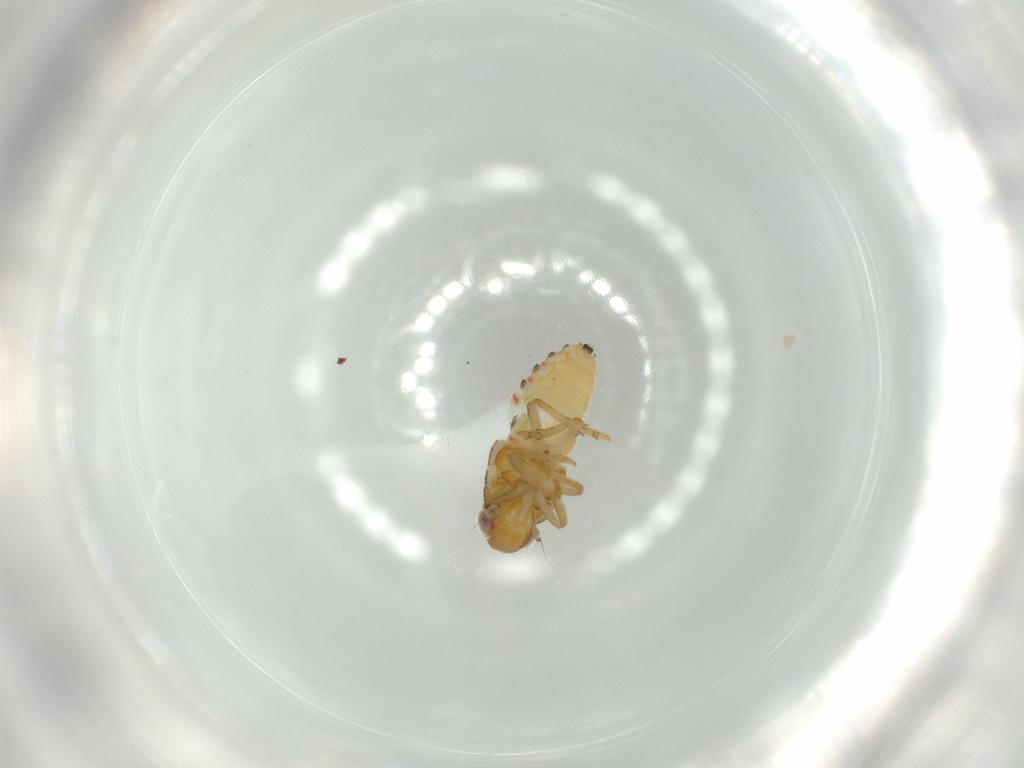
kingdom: Animalia
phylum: Arthropoda
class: Insecta
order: Hemiptera
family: Issidae
